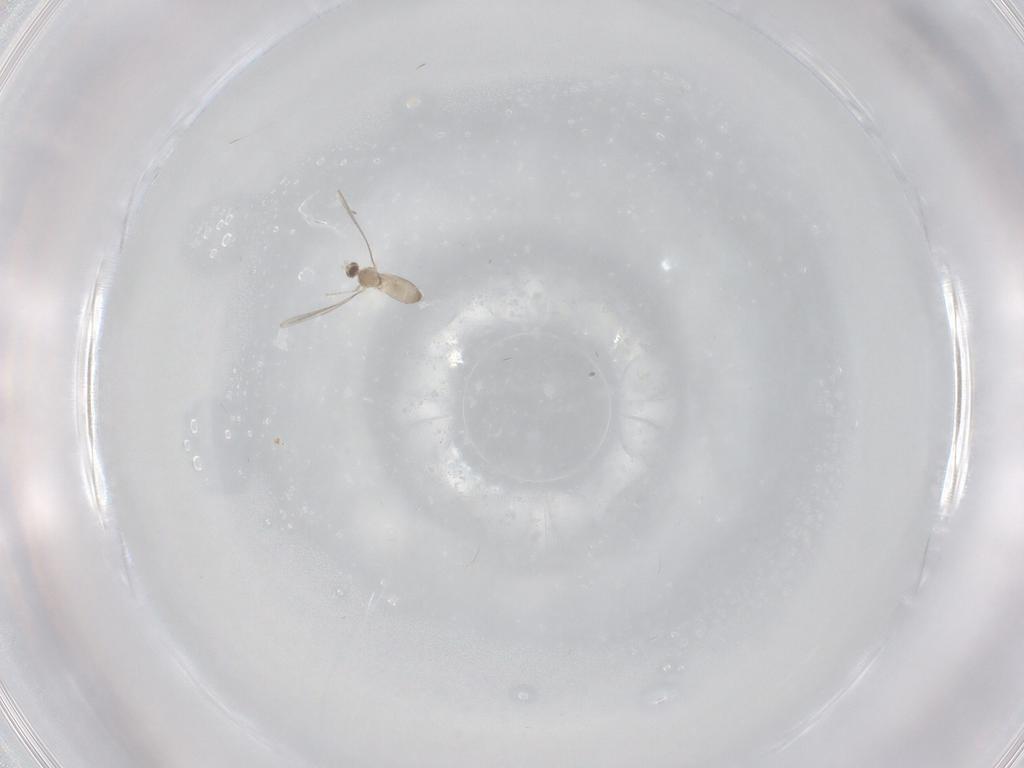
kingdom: Animalia
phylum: Arthropoda
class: Insecta
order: Diptera
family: Cecidomyiidae
